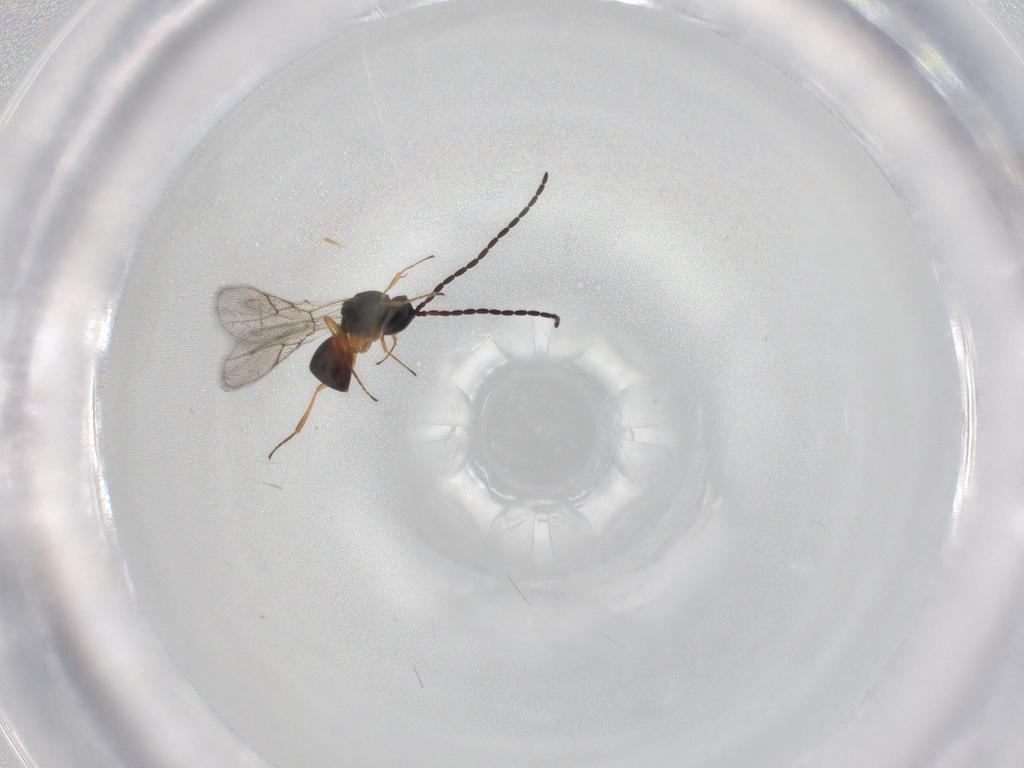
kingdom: Animalia
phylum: Arthropoda
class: Insecta
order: Hymenoptera
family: Figitidae
